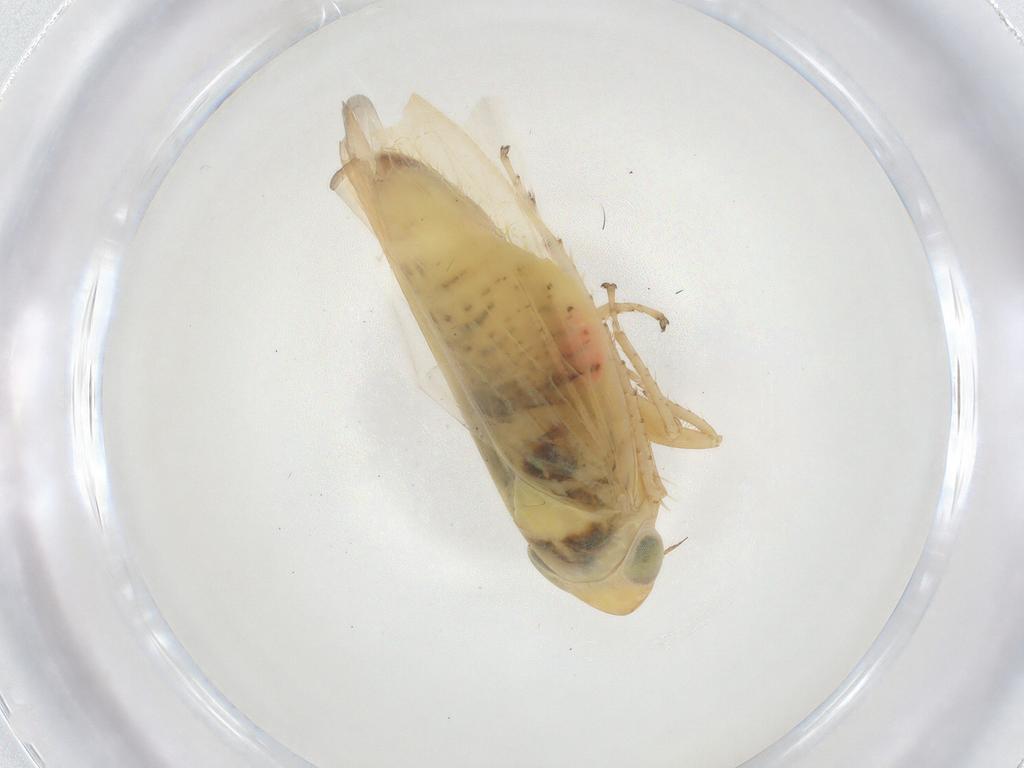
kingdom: Animalia
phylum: Arthropoda
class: Insecta
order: Hemiptera
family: Cicadellidae
